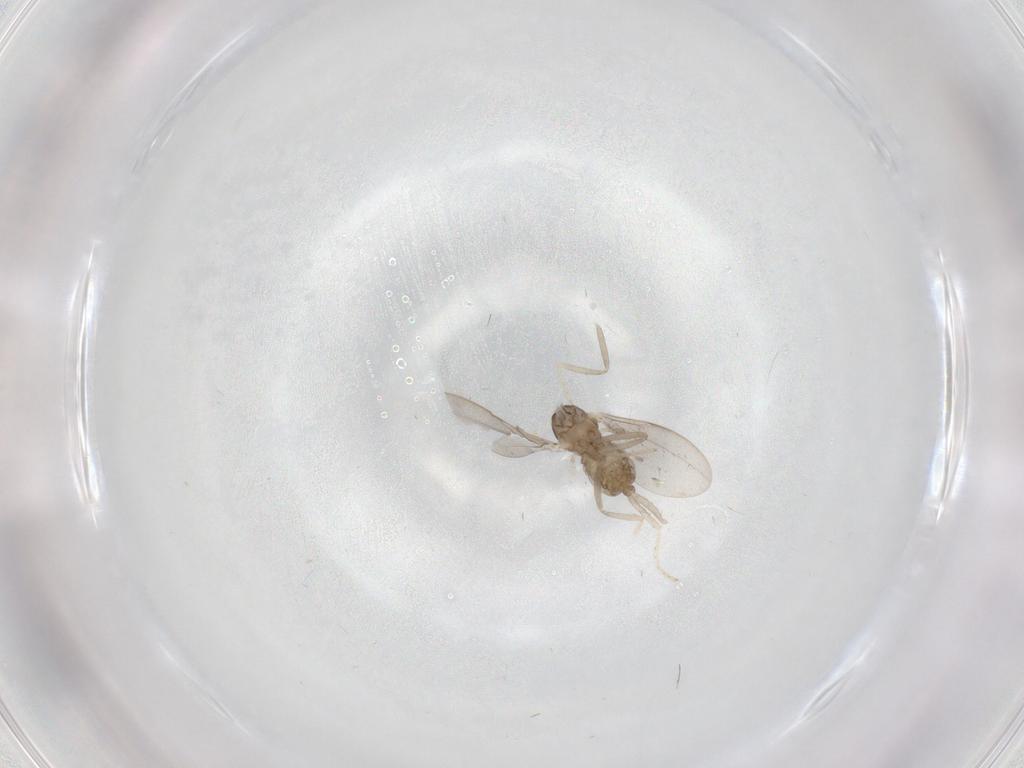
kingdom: Animalia
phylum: Arthropoda
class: Insecta
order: Diptera
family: Cecidomyiidae
